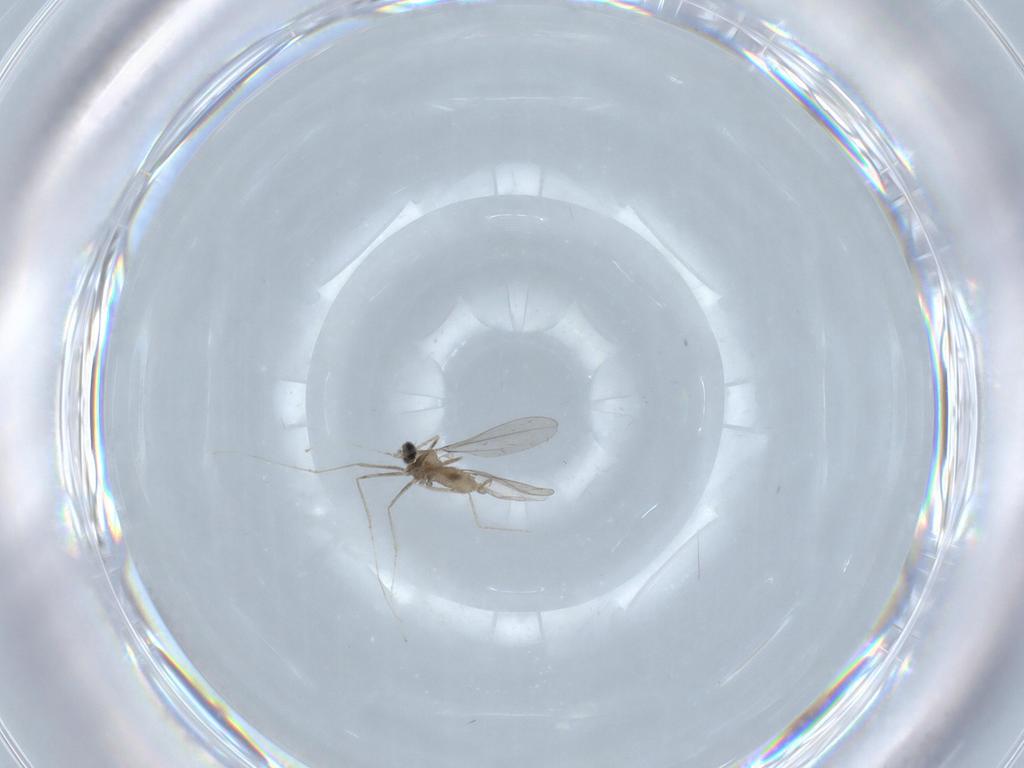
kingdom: Animalia
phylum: Arthropoda
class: Insecta
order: Diptera
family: Cecidomyiidae
